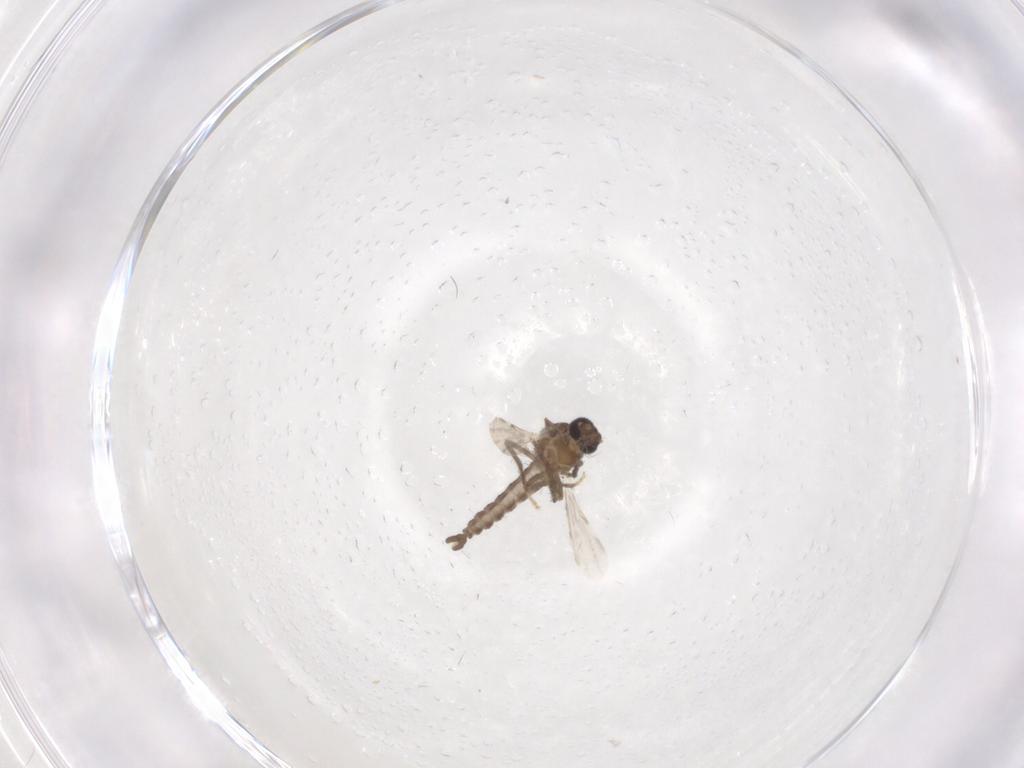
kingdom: Animalia
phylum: Arthropoda
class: Insecta
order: Diptera
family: Ceratopogonidae
